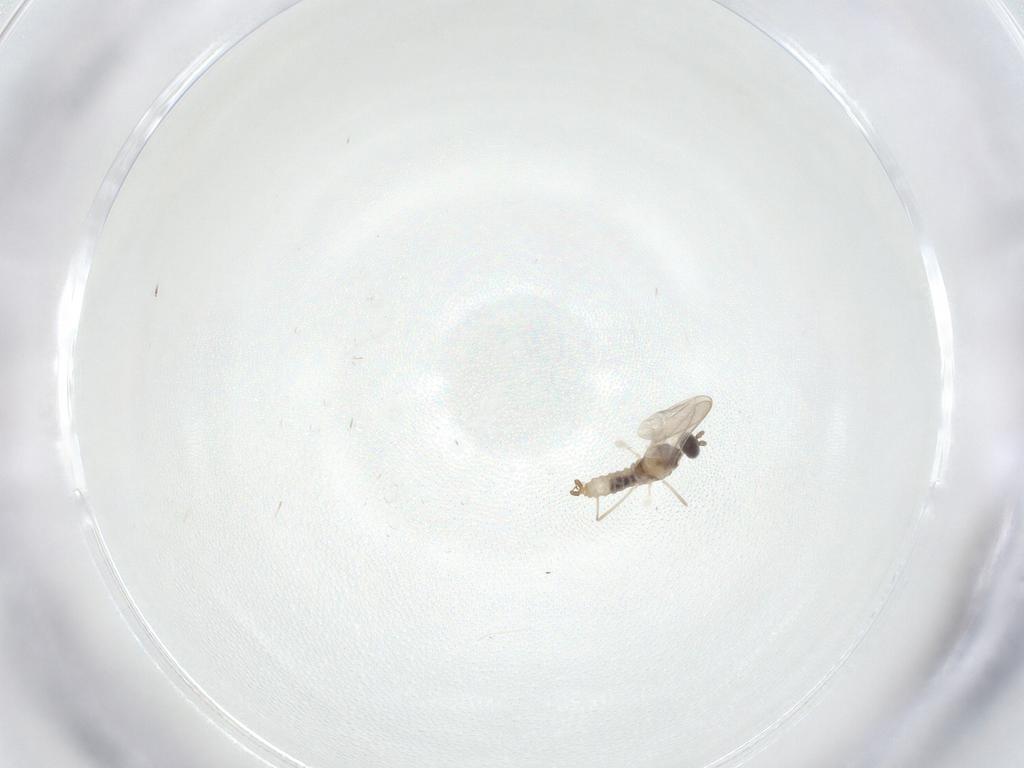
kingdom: Animalia
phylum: Arthropoda
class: Insecta
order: Diptera
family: Cecidomyiidae
